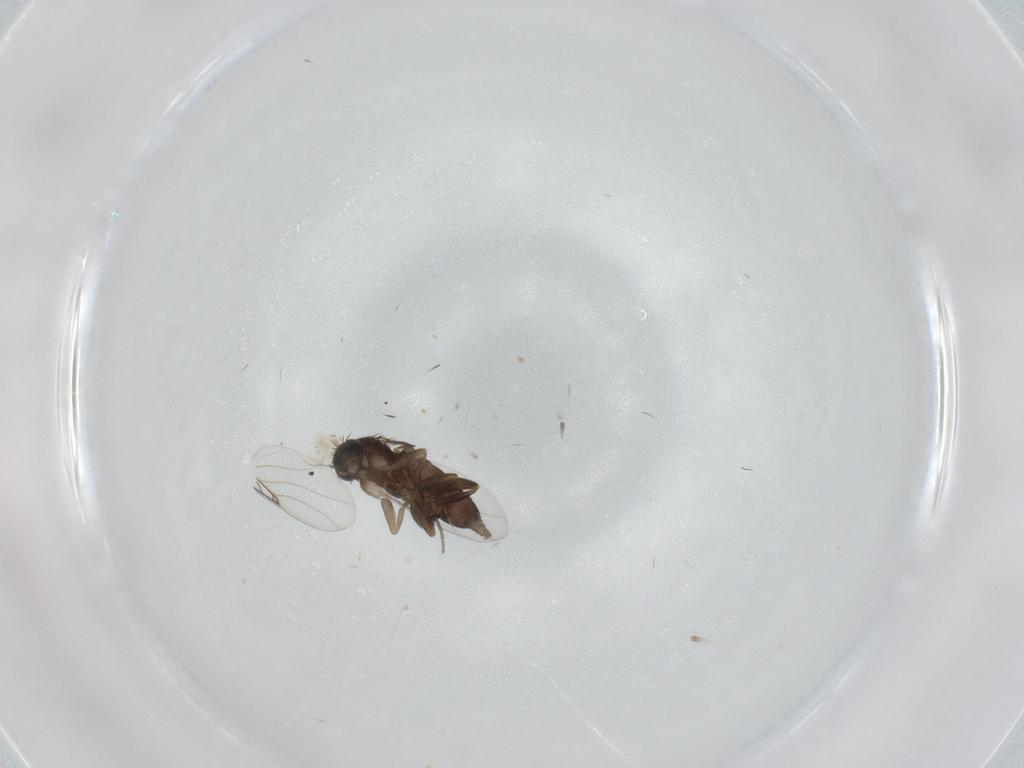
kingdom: Animalia
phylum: Arthropoda
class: Insecta
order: Diptera
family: Phoridae
